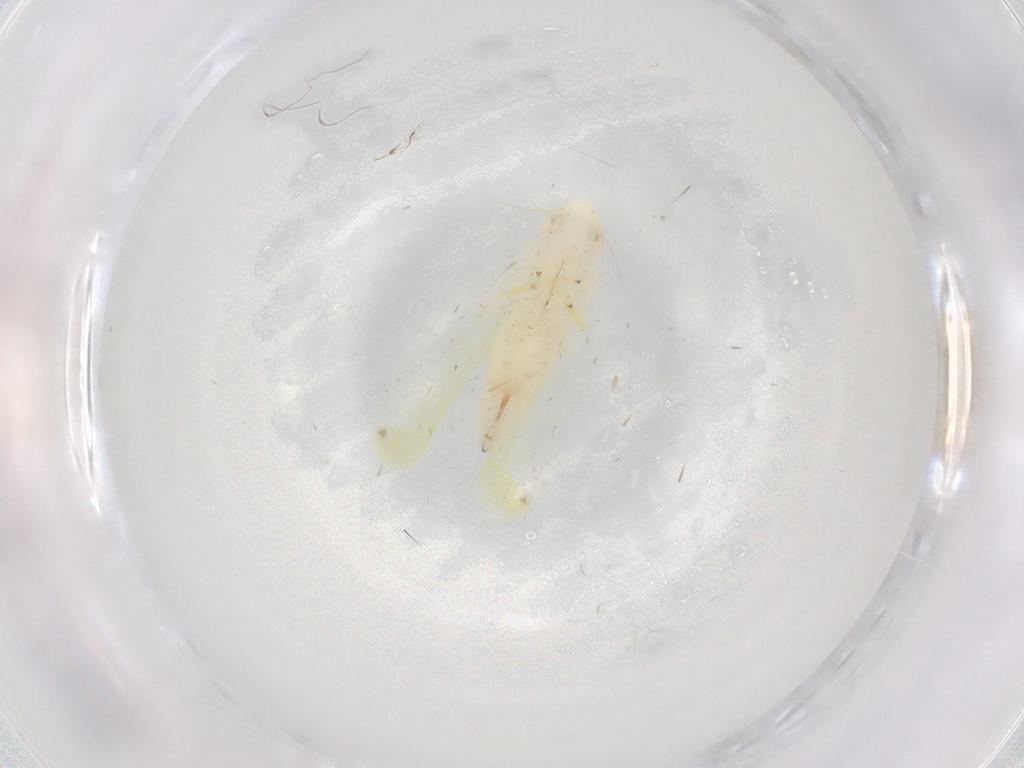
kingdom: Animalia
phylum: Arthropoda
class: Insecta
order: Hemiptera
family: Cicadellidae
